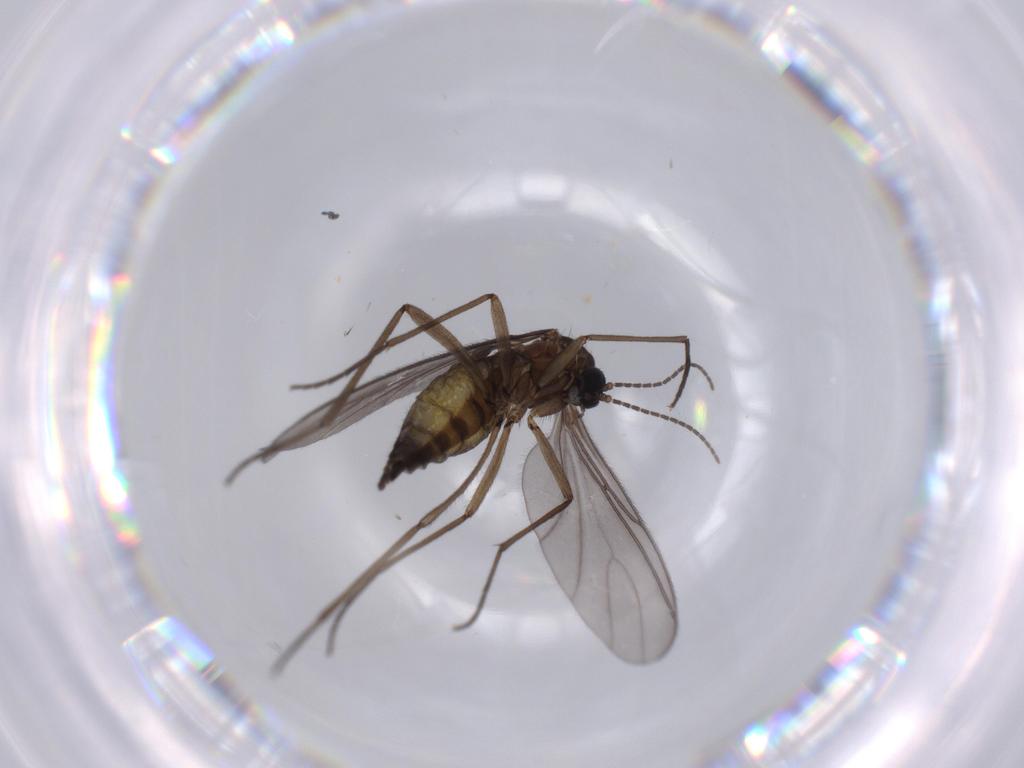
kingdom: Animalia
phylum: Arthropoda
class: Insecta
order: Diptera
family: Sciaridae
